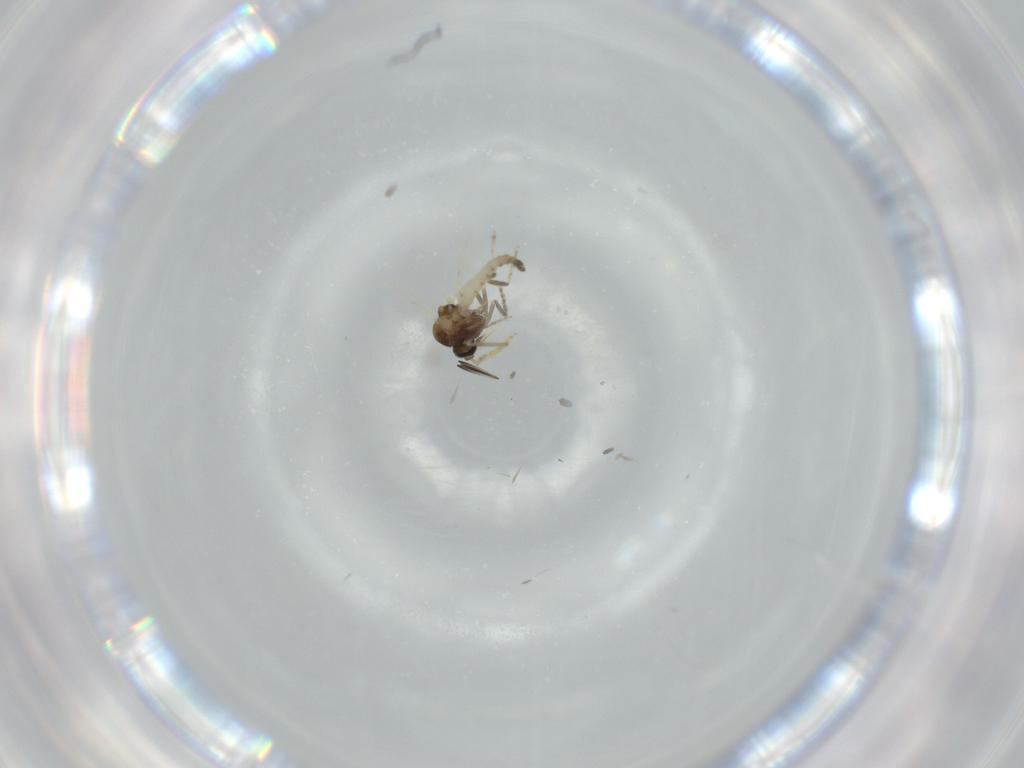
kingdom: Animalia
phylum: Arthropoda
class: Insecta
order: Diptera
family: Ceratopogonidae
